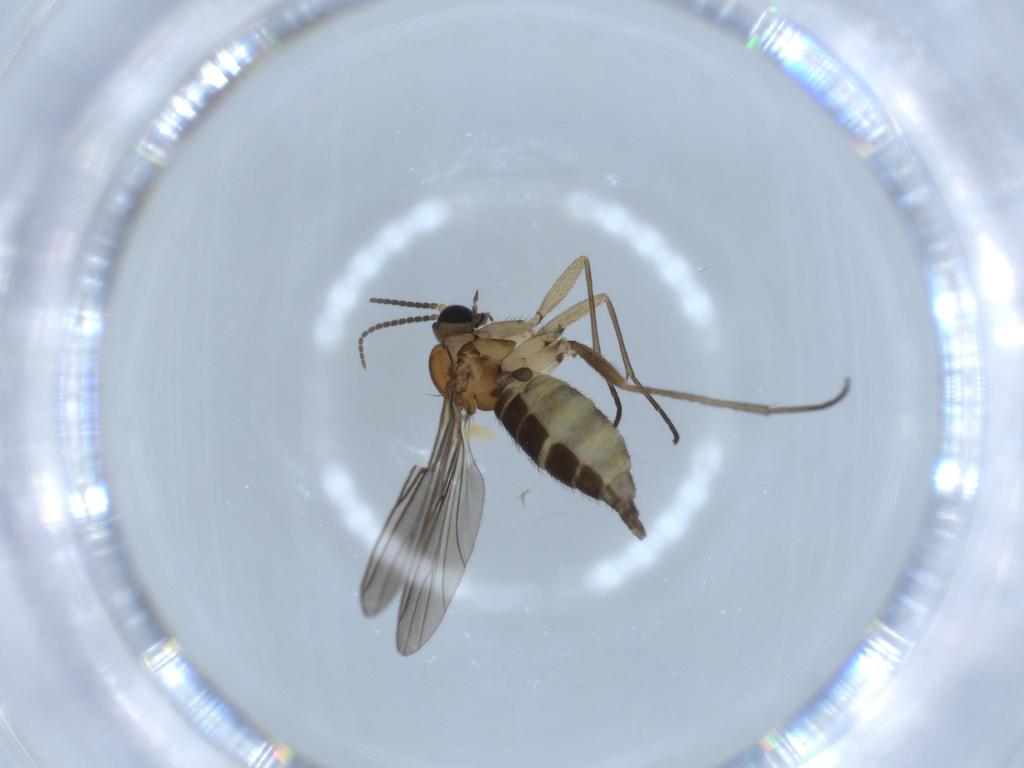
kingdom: Animalia
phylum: Arthropoda
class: Insecta
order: Diptera
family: Sciaridae
